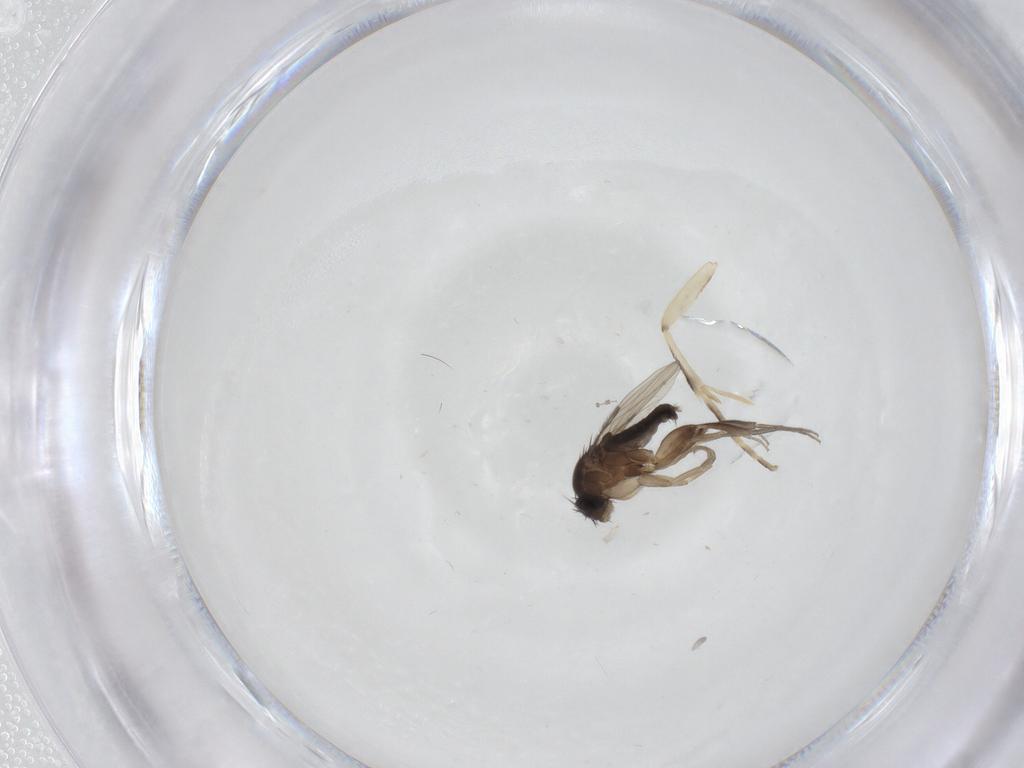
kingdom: Animalia
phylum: Arthropoda
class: Insecta
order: Diptera
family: Phoridae
